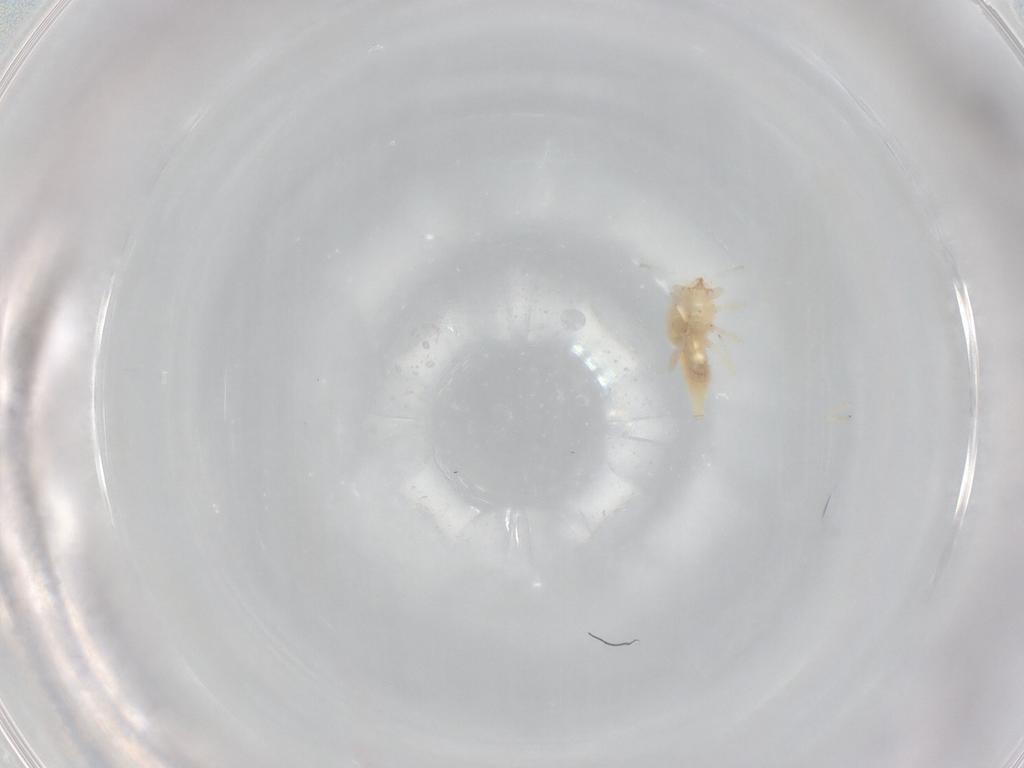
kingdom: Animalia
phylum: Arthropoda
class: Insecta
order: Neuroptera
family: Coniopterygidae
